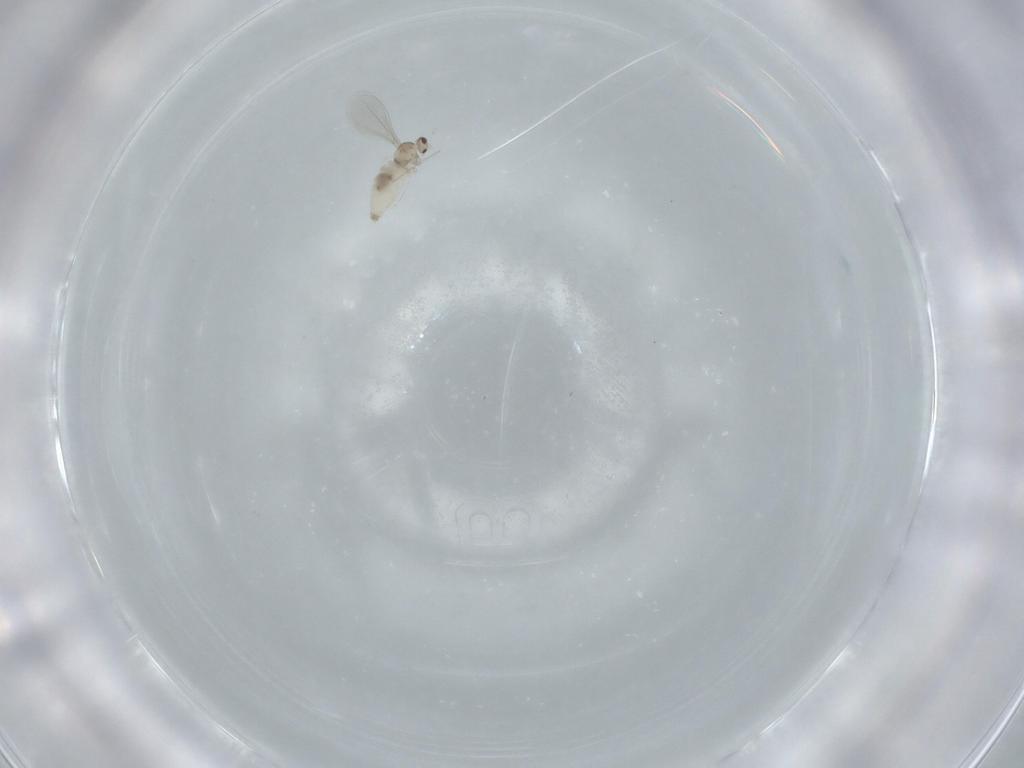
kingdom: Animalia
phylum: Arthropoda
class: Insecta
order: Diptera
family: Cecidomyiidae
